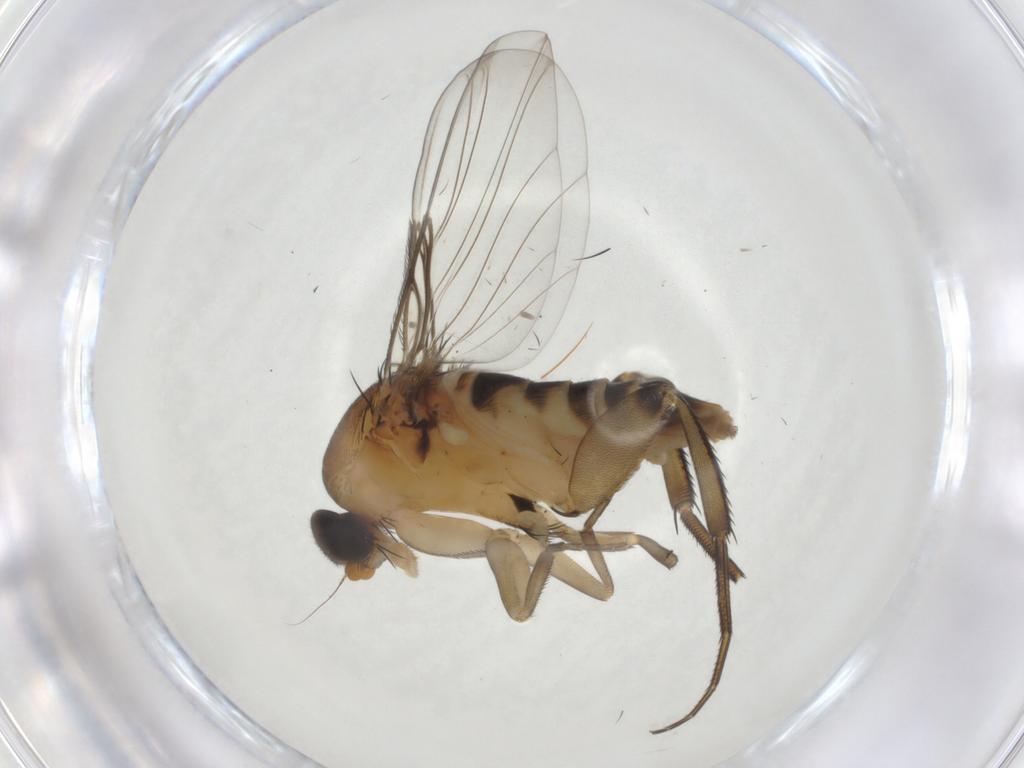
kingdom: Animalia
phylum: Arthropoda
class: Insecta
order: Diptera
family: Phoridae
